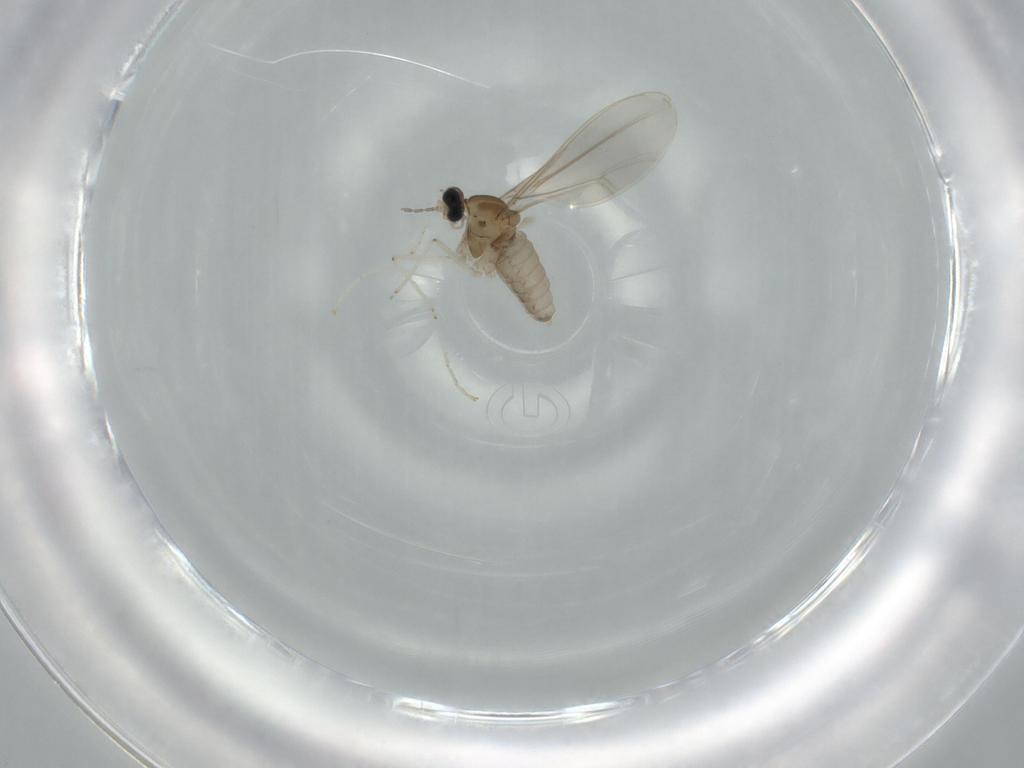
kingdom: Animalia
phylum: Arthropoda
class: Insecta
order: Diptera
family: Cecidomyiidae
